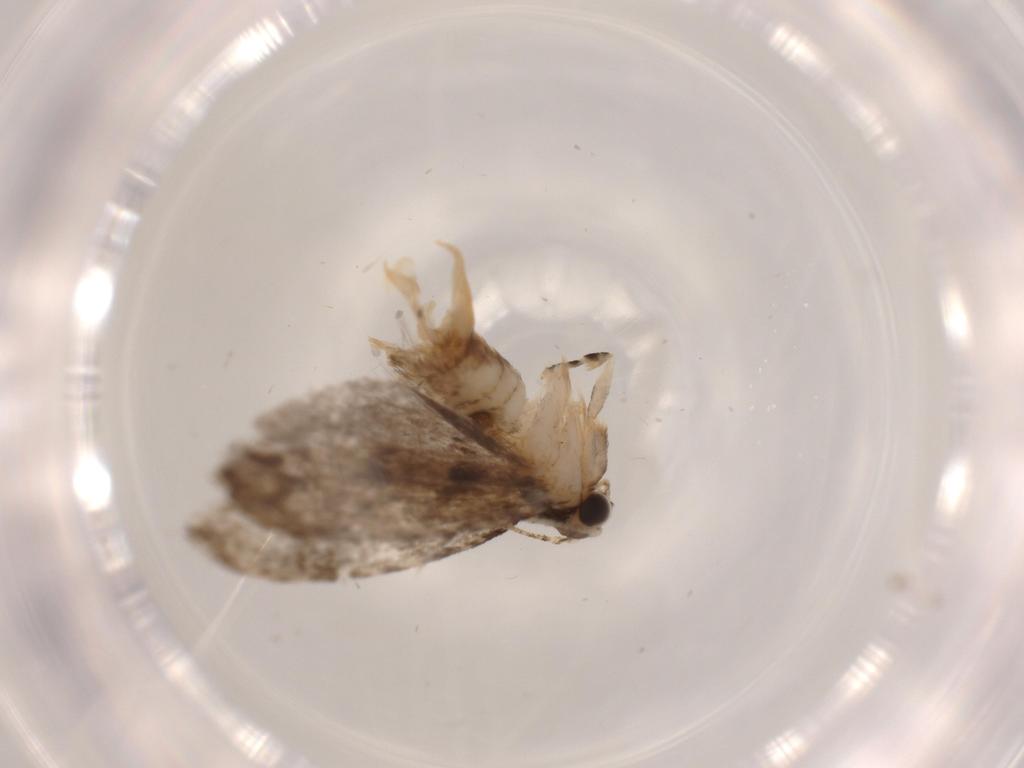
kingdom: Animalia
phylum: Arthropoda
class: Insecta
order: Lepidoptera
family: Tineidae
